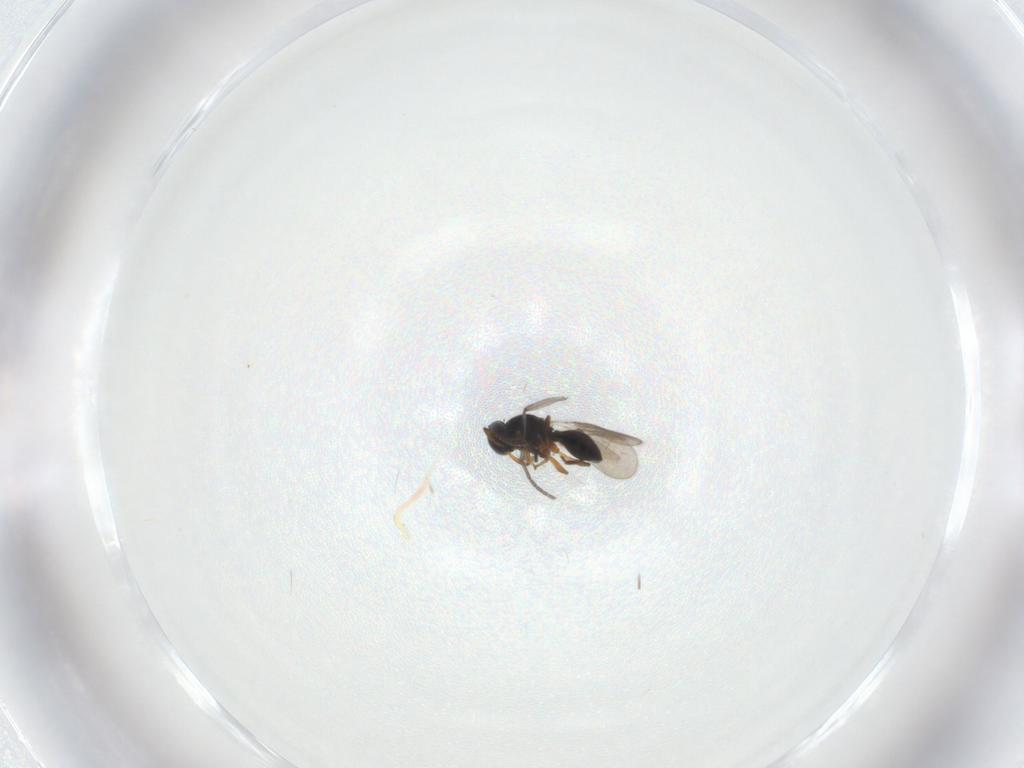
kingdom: Animalia
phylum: Arthropoda
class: Insecta
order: Hymenoptera
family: Platygastridae
